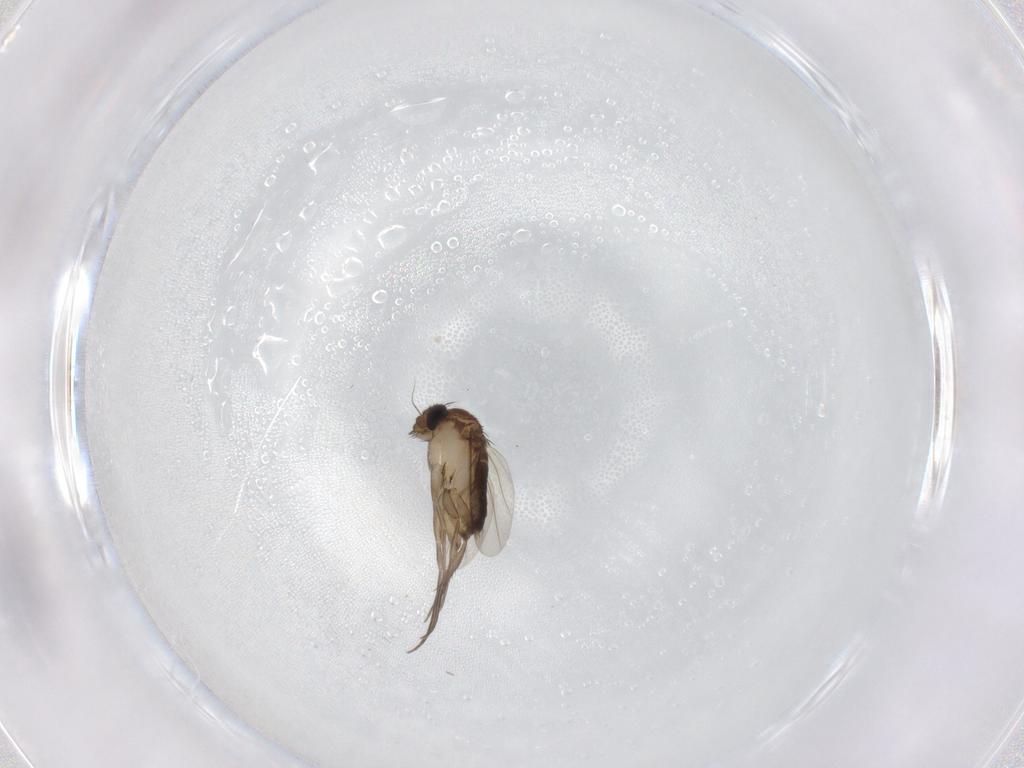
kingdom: Animalia
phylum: Arthropoda
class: Insecta
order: Diptera
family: Phoridae
